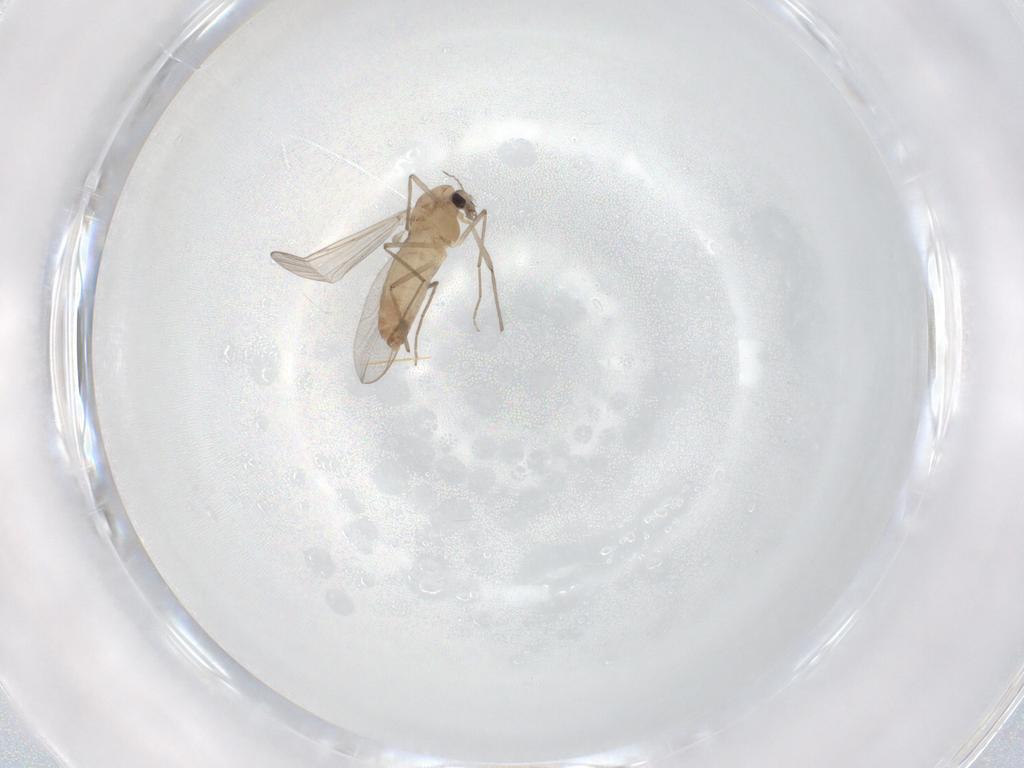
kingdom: Animalia
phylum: Arthropoda
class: Insecta
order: Diptera
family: Chironomidae
